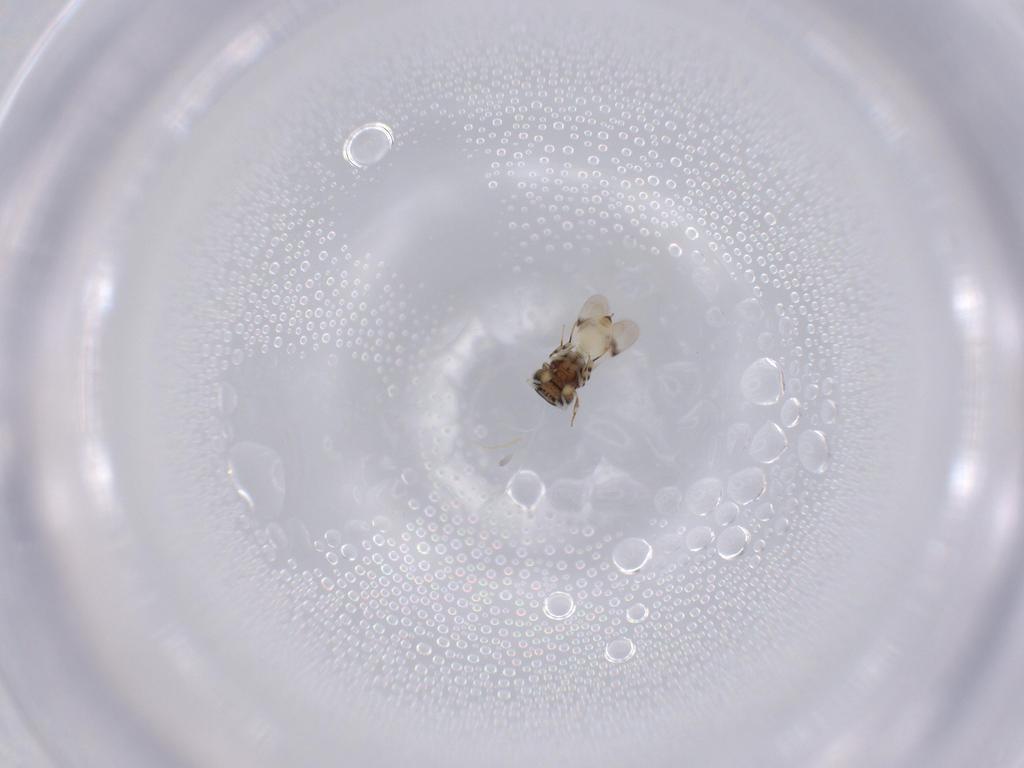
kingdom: Animalia
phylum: Arthropoda
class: Insecta
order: Hymenoptera
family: Scelionidae
